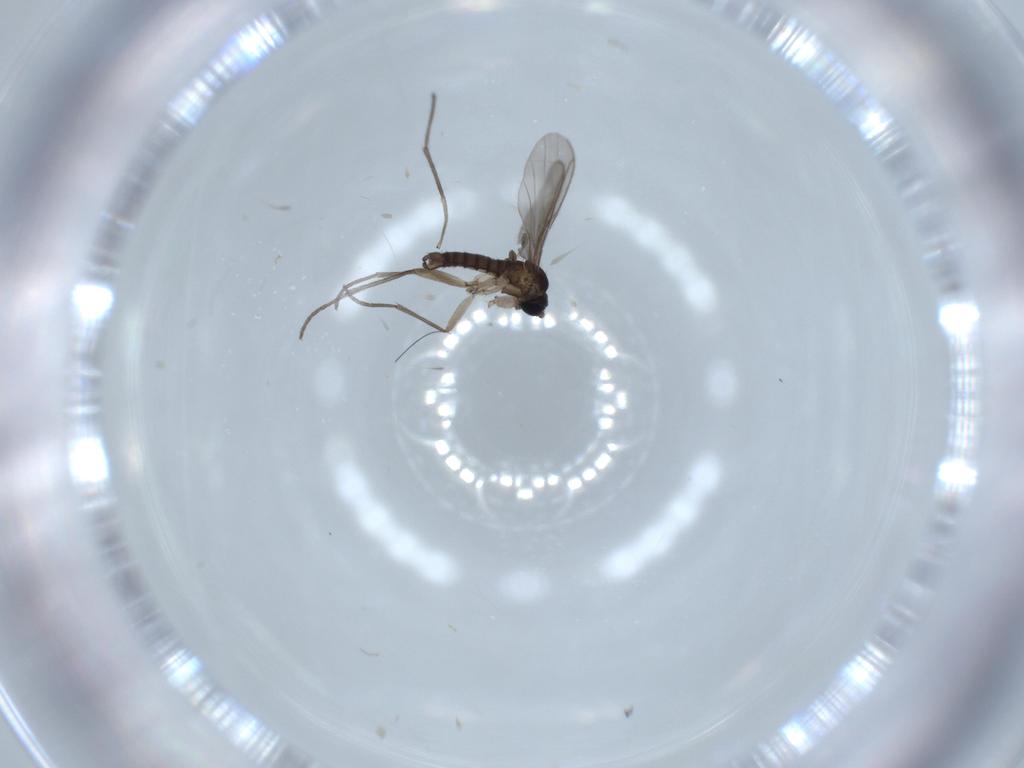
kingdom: Animalia
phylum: Arthropoda
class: Insecta
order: Diptera
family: Sciaridae
